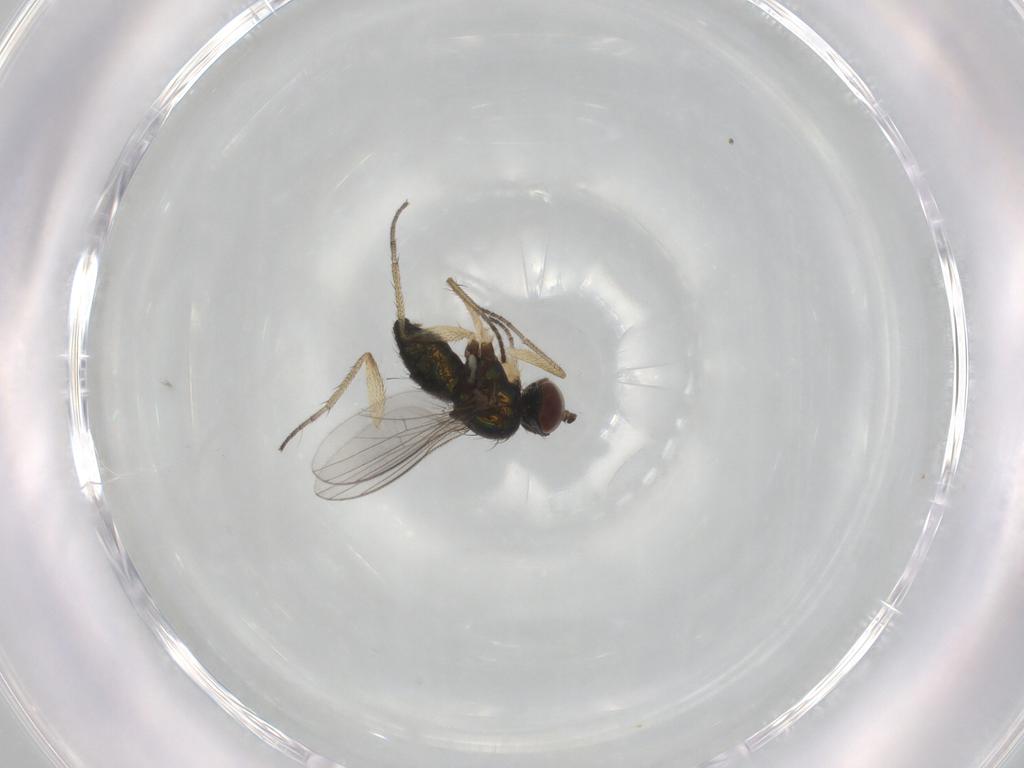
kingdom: Animalia
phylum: Arthropoda
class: Insecta
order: Diptera
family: Dolichopodidae
